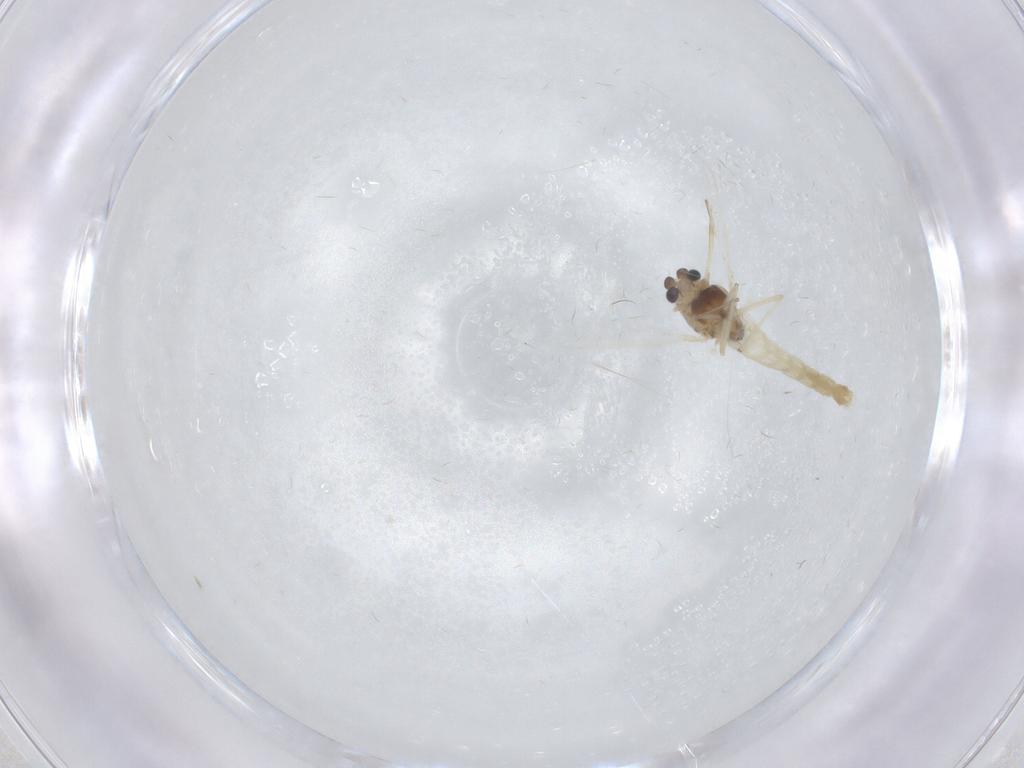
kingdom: Animalia
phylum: Arthropoda
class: Insecta
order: Diptera
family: Chironomidae
